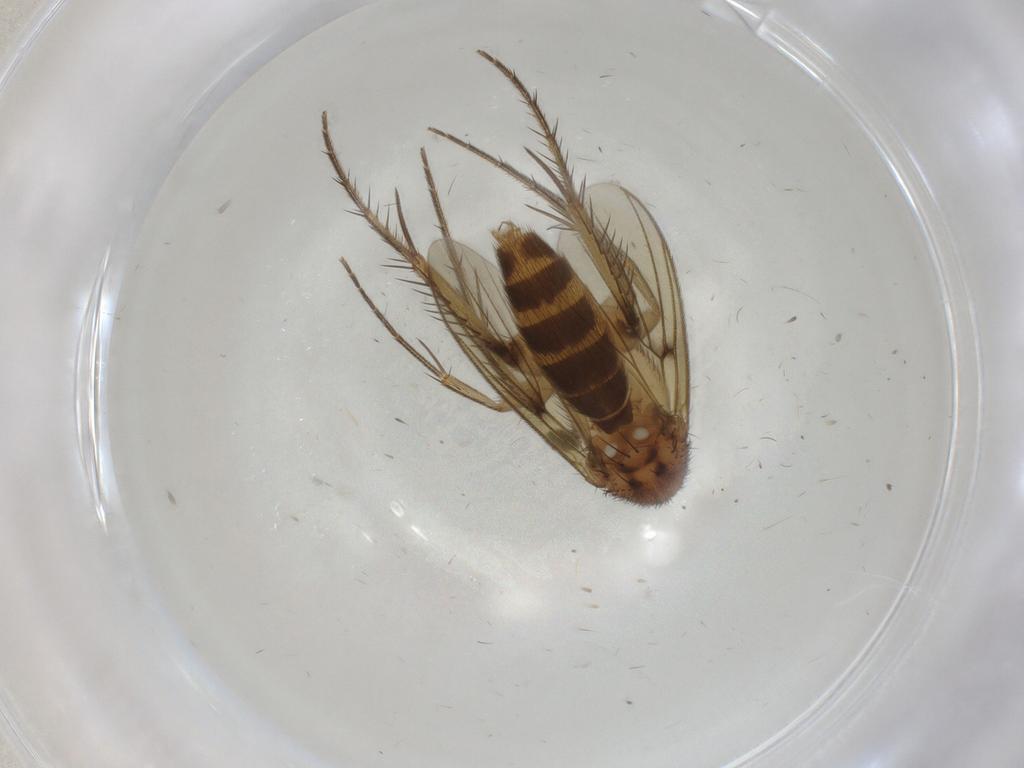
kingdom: Animalia
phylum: Arthropoda
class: Insecta
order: Diptera
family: Mycetophilidae
